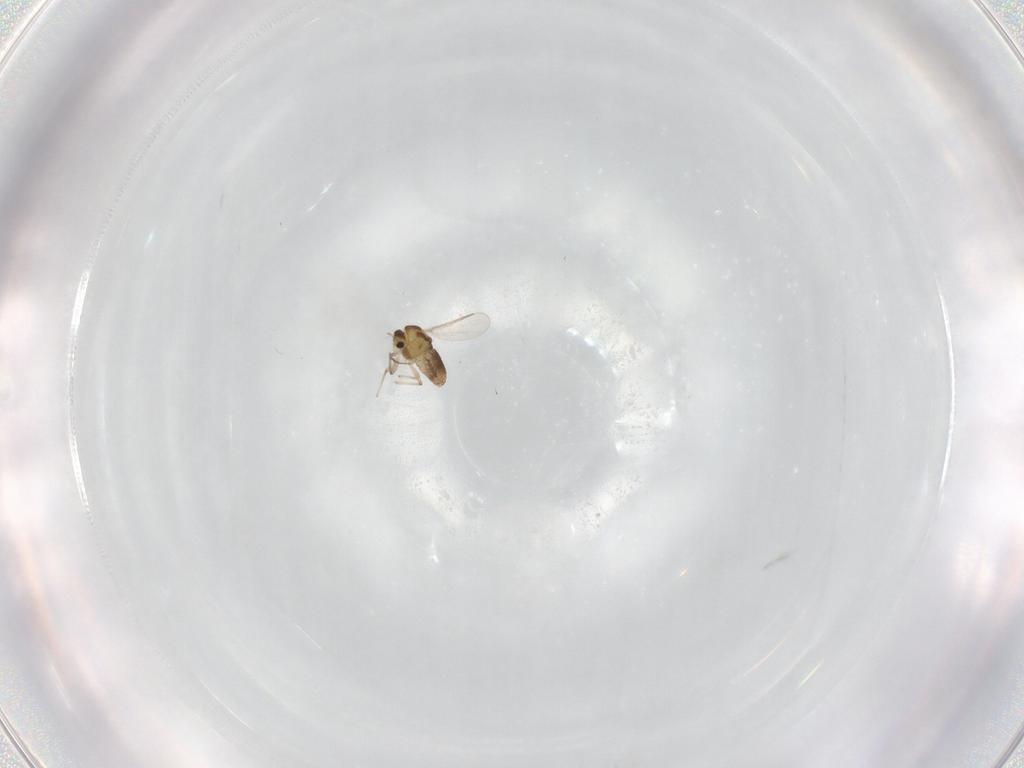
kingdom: Animalia
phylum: Arthropoda
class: Insecta
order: Diptera
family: Chironomidae
